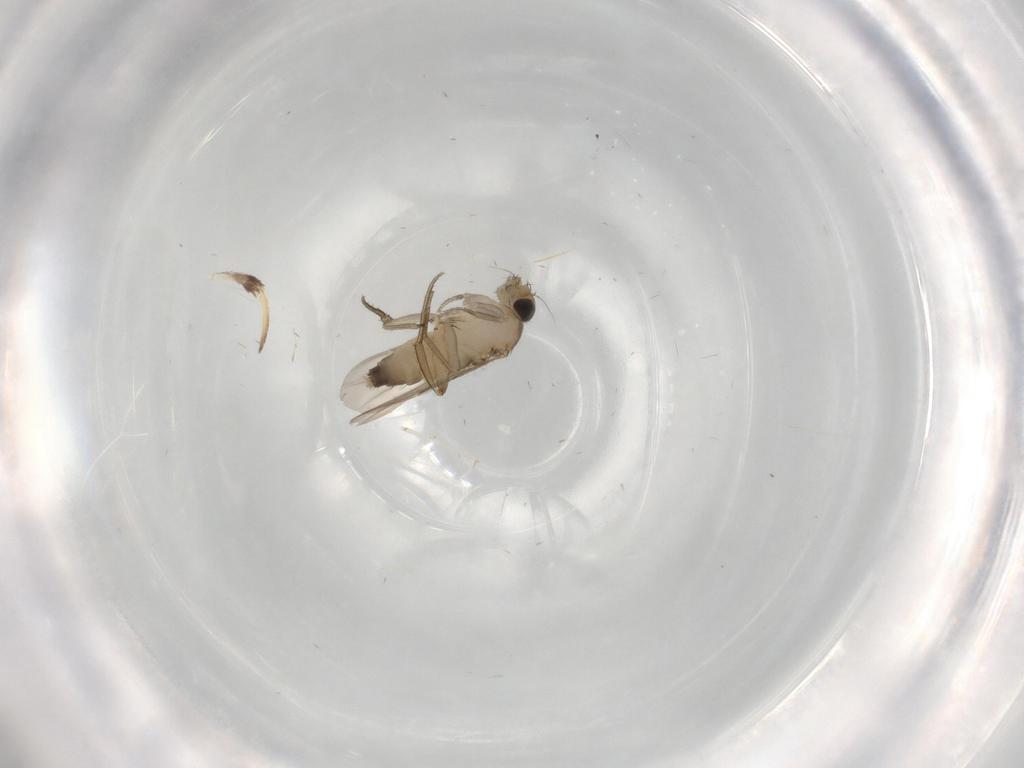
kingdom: Animalia
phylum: Arthropoda
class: Insecta
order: Diptera
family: Phoridae
